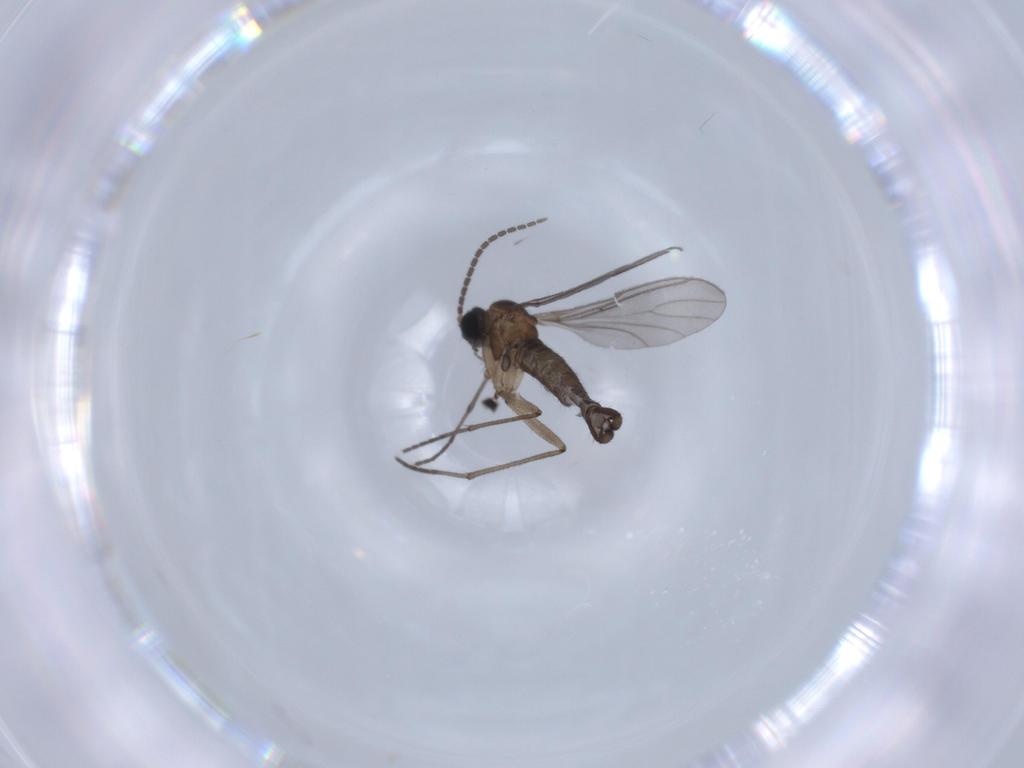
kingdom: Animalia
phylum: Arthropoda
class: Insecta
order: Diptera
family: Sciaridae
